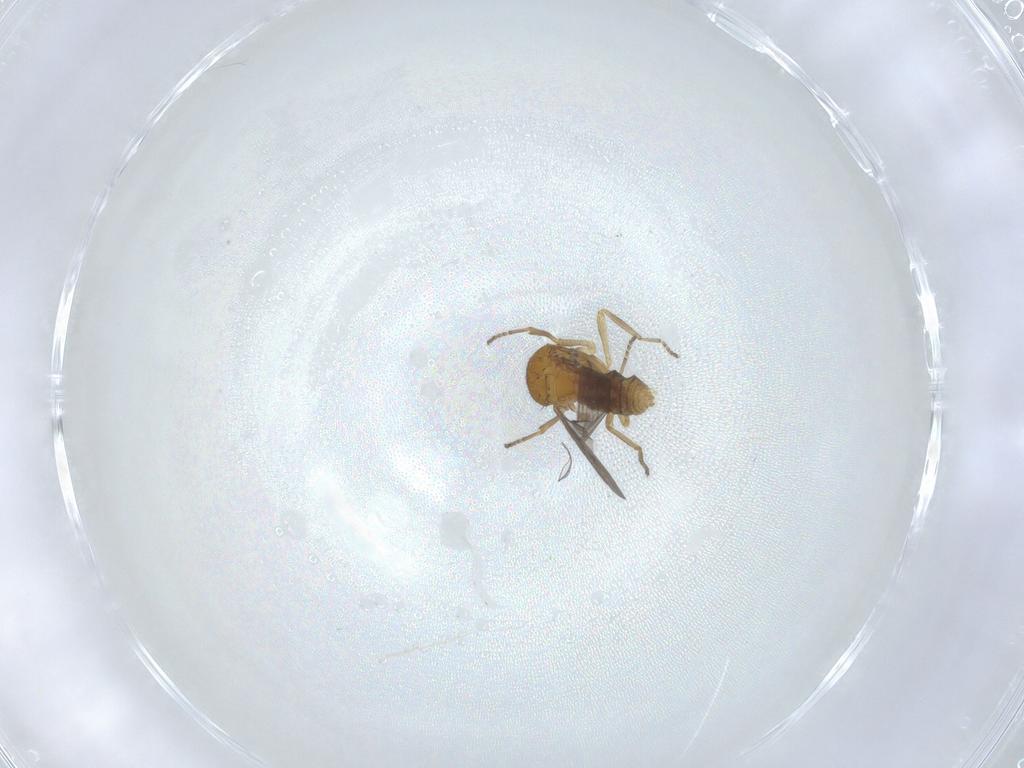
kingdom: Animalia
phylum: Arthropoda
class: Insecta
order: Diptera
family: Ceratopogonidae
